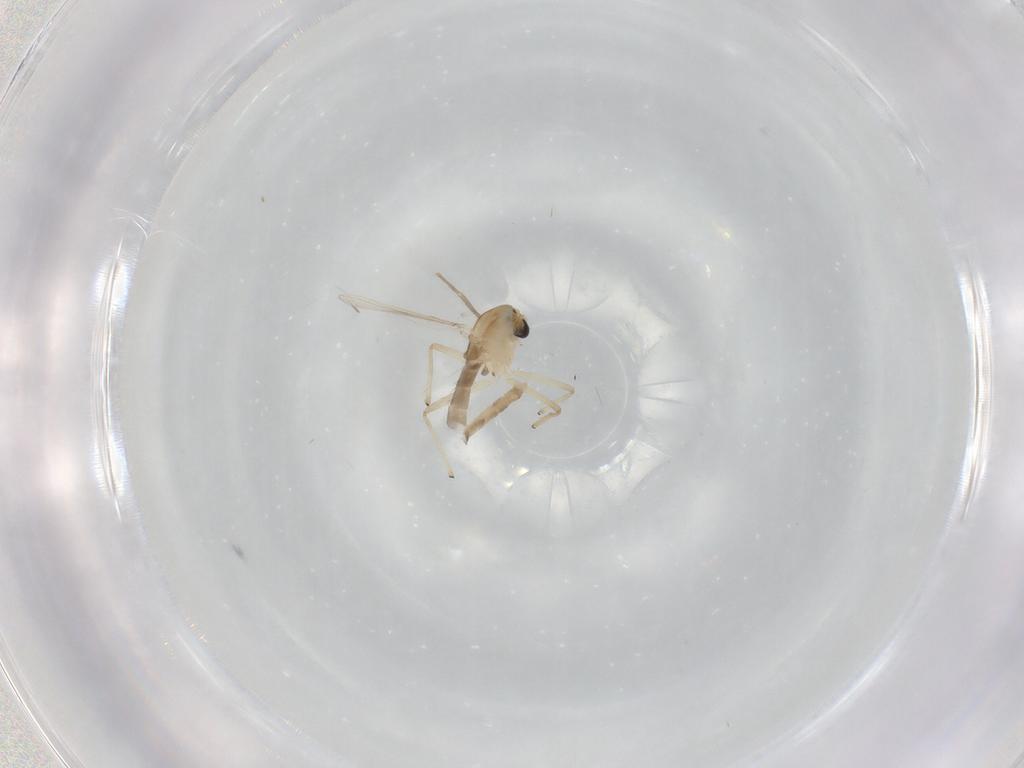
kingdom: Animalia
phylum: Arthropoda
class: Insecta
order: Diptera
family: Chironomidae
